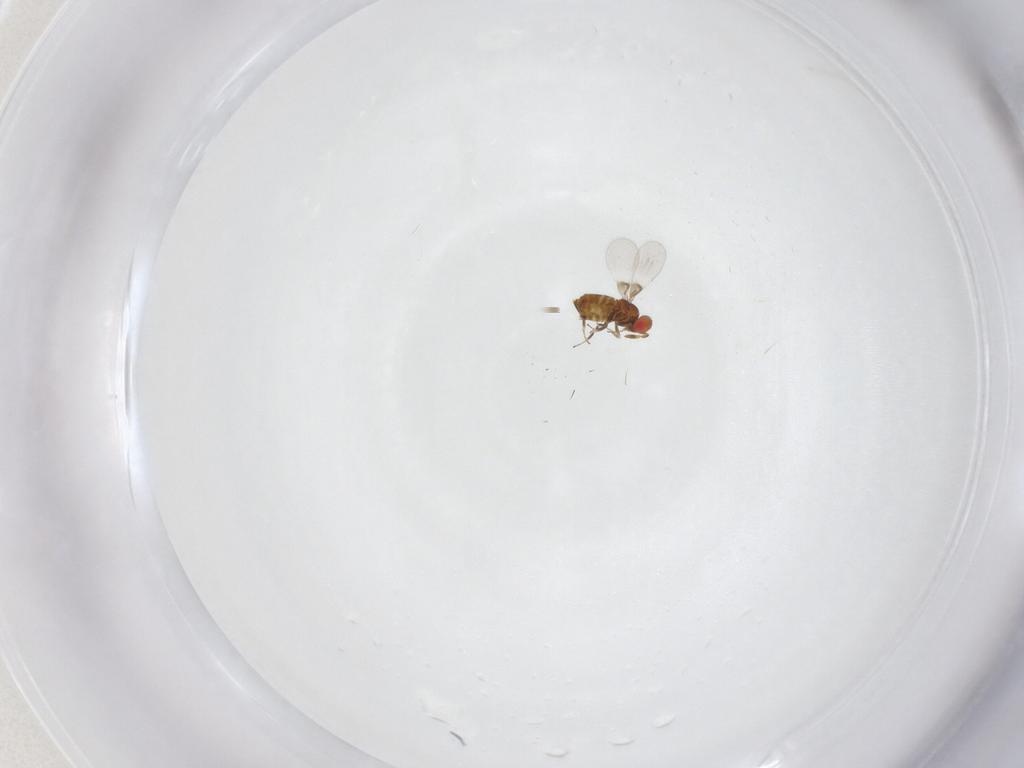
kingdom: Animalia
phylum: Arthropoda
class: Insecta
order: Hymenoptera
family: Trichogrammatidae
